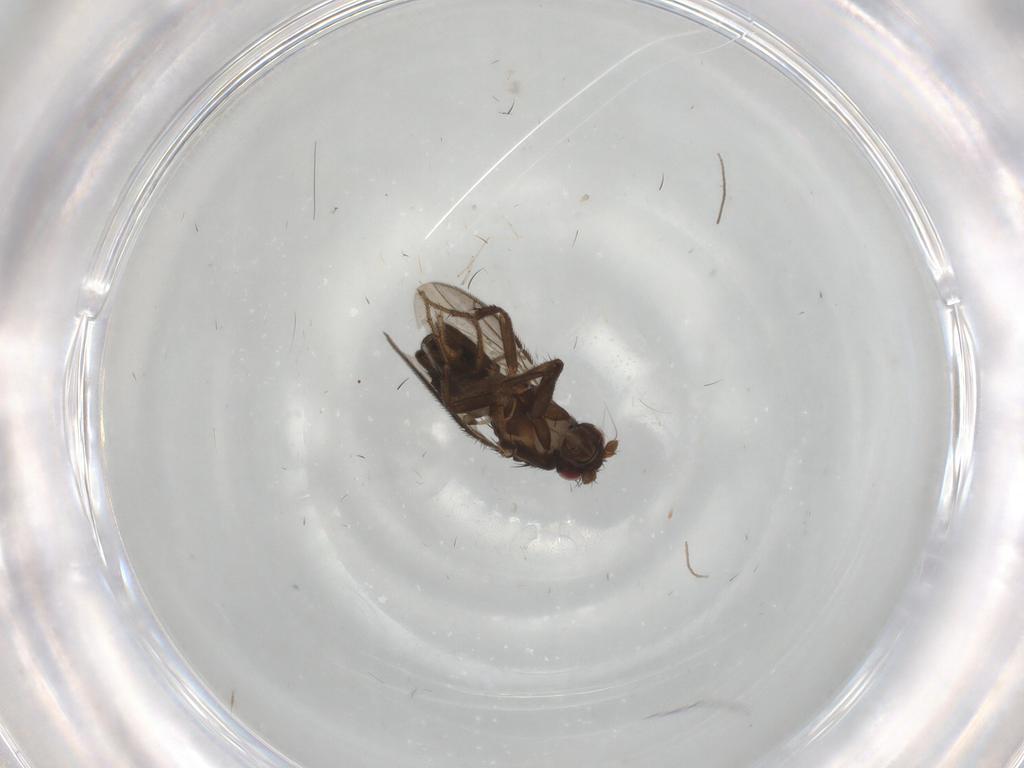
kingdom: Animalia
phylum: Arthropoda
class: Insecta
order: Diptera
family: Sphaeroceridae
